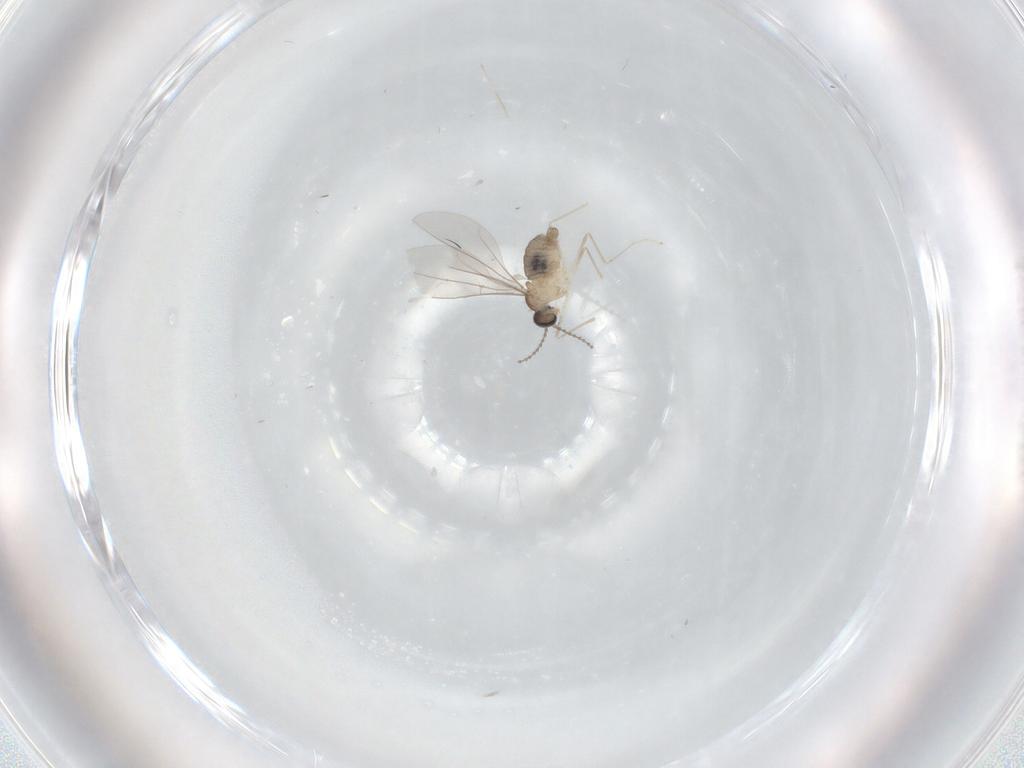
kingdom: Animalia
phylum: Arthropoda
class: Insecta
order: Diptera
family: Cecidomyiidae
